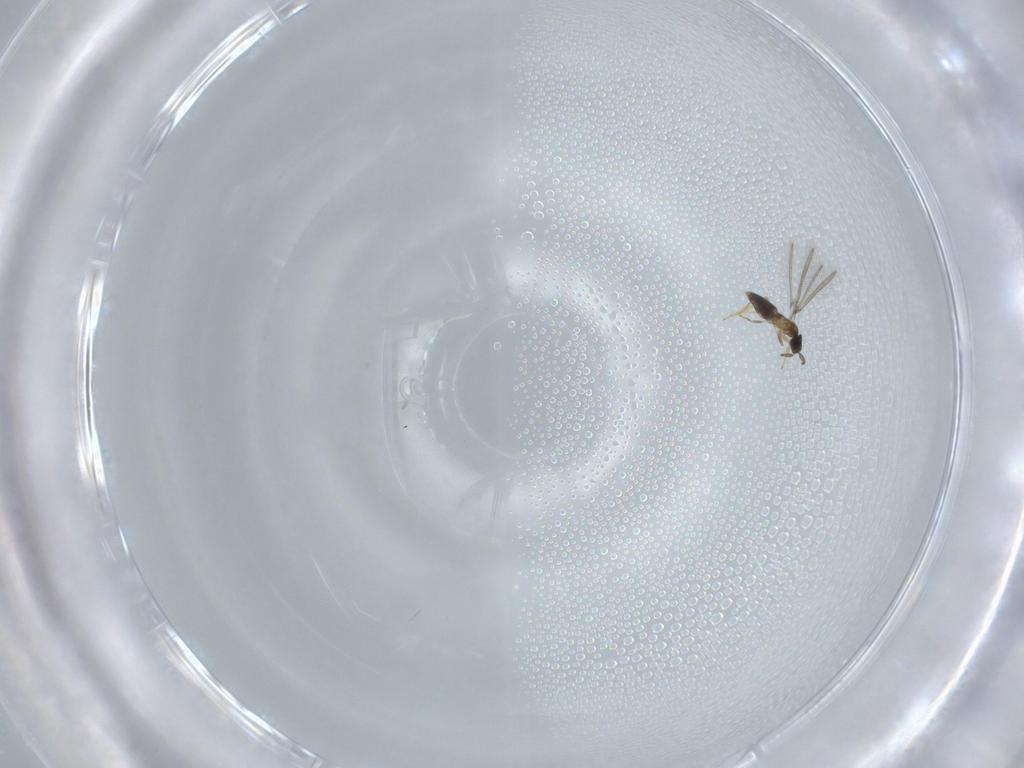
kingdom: Animalia
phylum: Arthropoda
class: Insecta
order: Hymenoptera
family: Mymaridae
